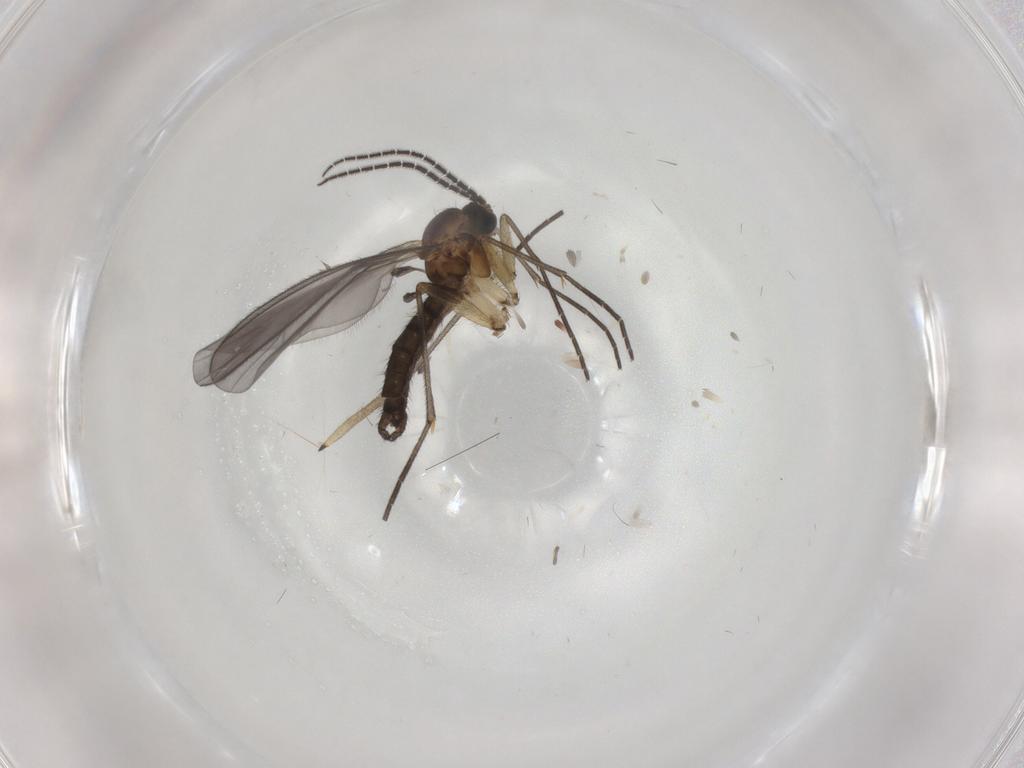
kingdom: Animalia
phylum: Arthropoda
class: Insecta
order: Diptera
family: Sciaridae
